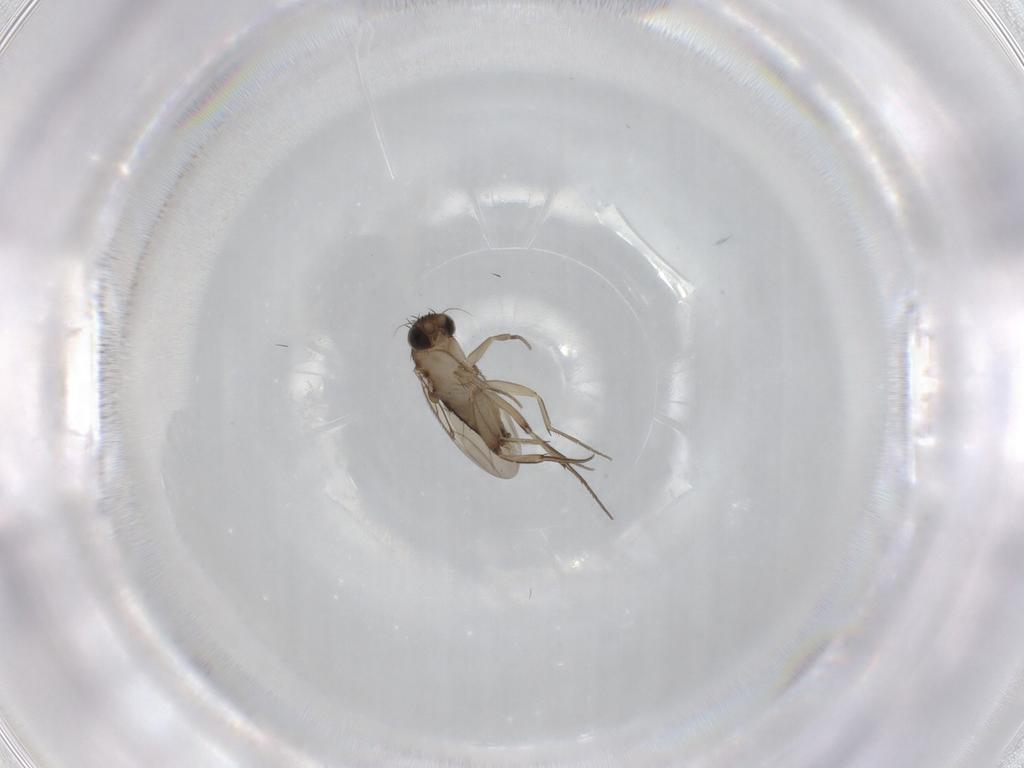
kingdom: Animalia
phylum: Arthropoda
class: Insecta
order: Diptera
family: Phoridae
